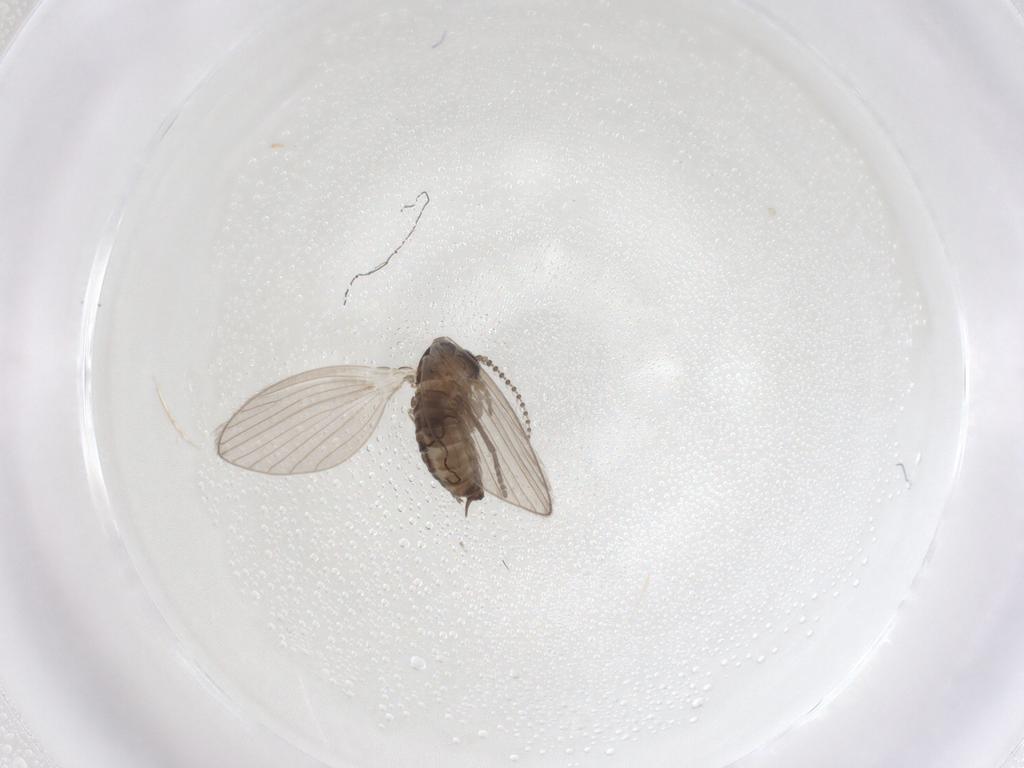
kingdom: Animalia
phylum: Arthropoda
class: Insecta
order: Diptera
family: Psychodidae
